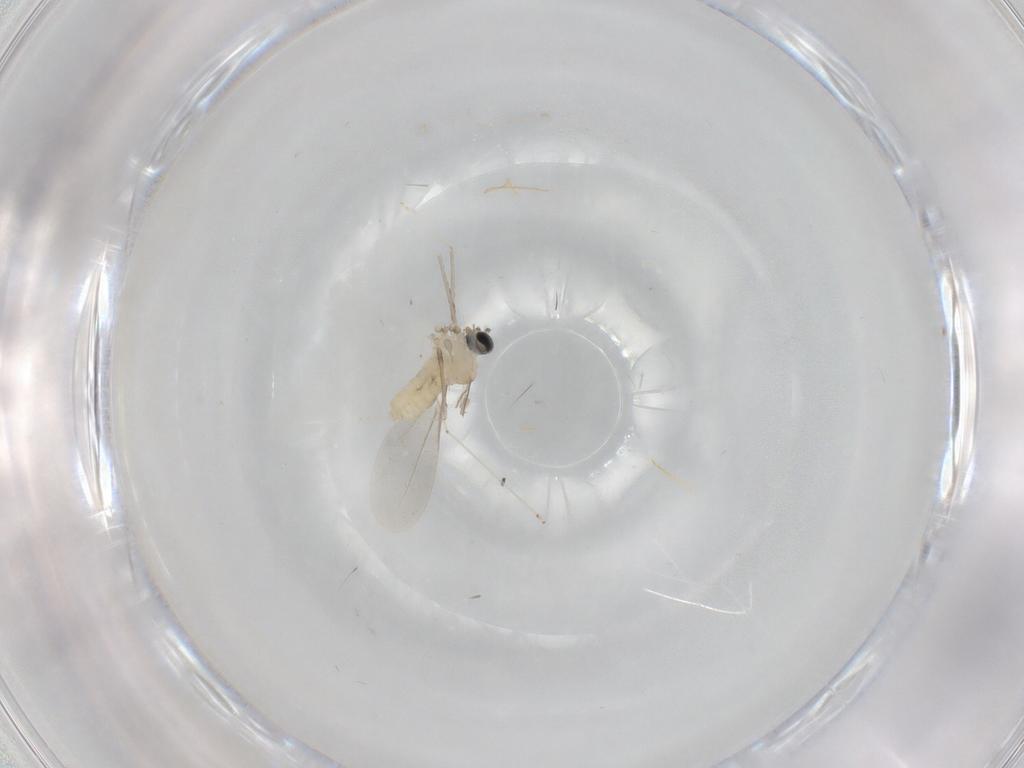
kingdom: Animalia
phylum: Arthropoda
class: Insecta
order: Diptera
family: Cecidomyiidae
